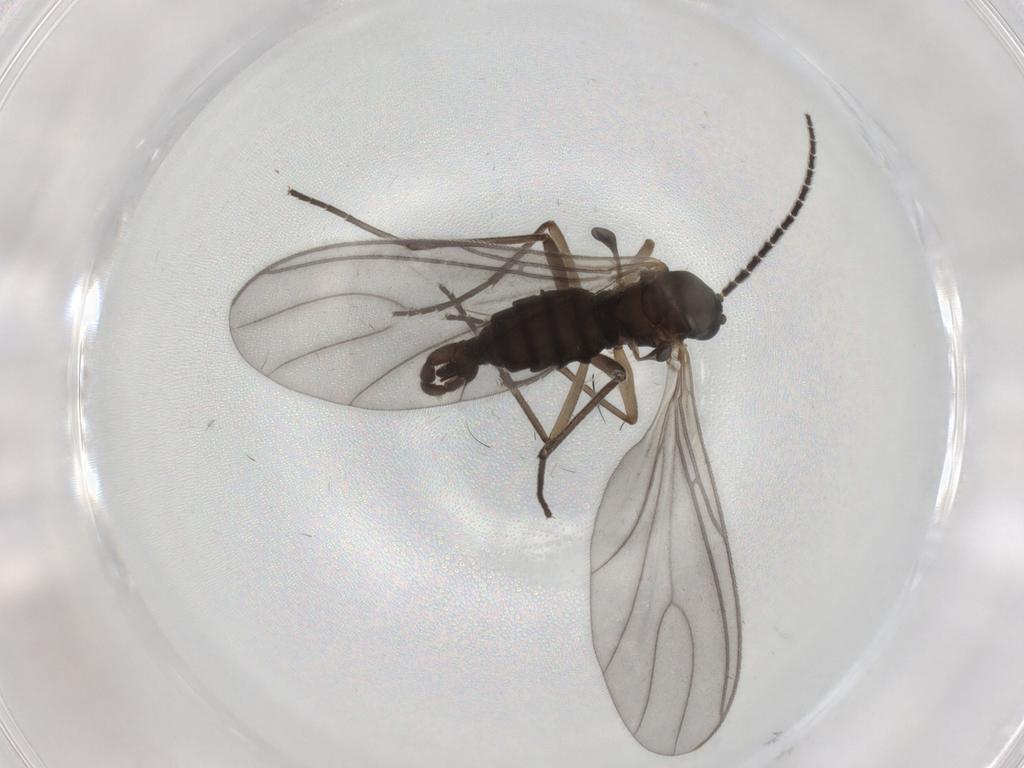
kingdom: Animalia
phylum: Arthropoda
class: Insecta
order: Diptera
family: Sciaridae
